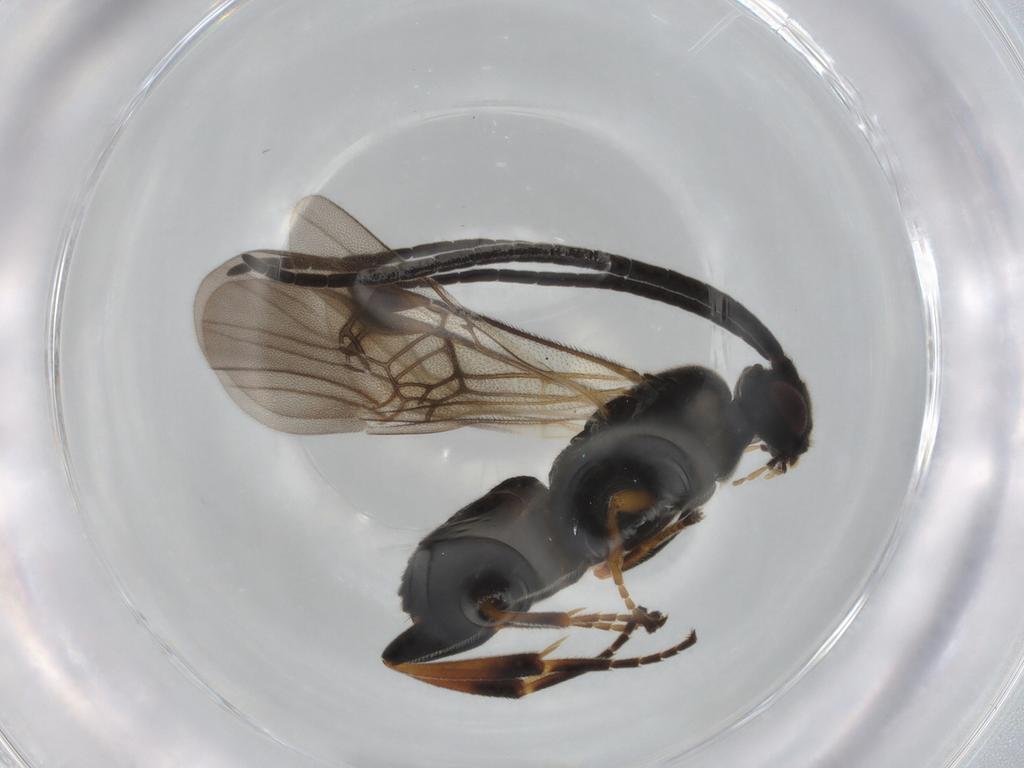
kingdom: Animalia
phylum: Arthropoda
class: Insecta
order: Hymenoptera
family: Braconidae
